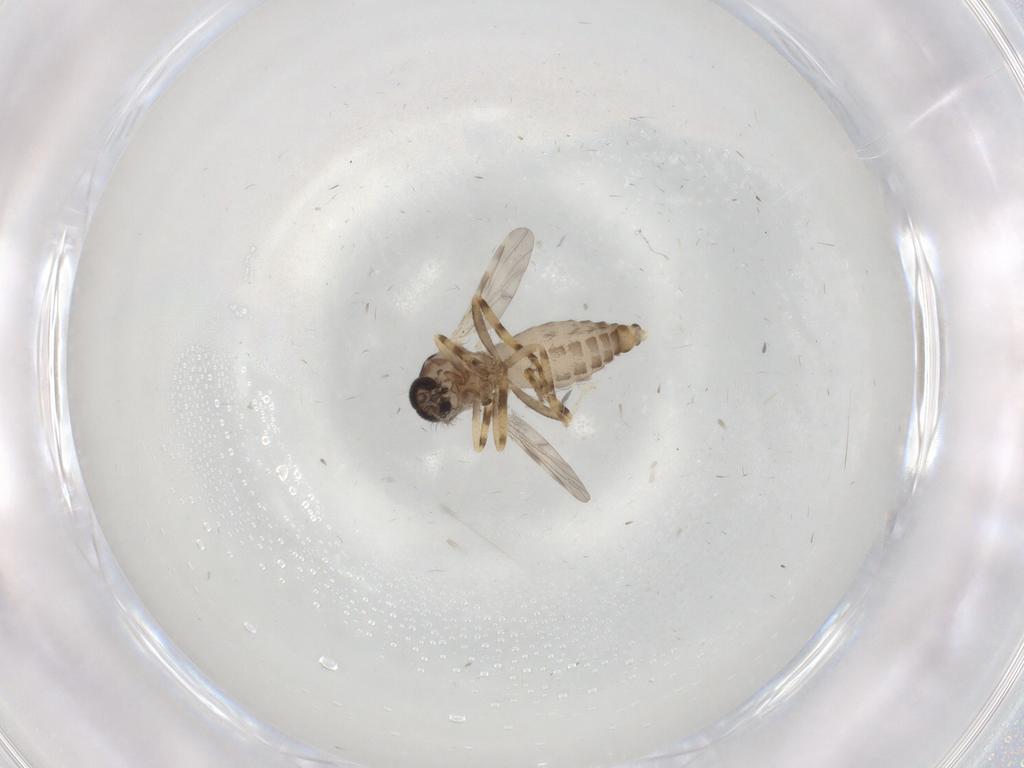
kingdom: Animalia
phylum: Arthropoda
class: Insecta
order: Diptera
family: Ceratopogonidae
